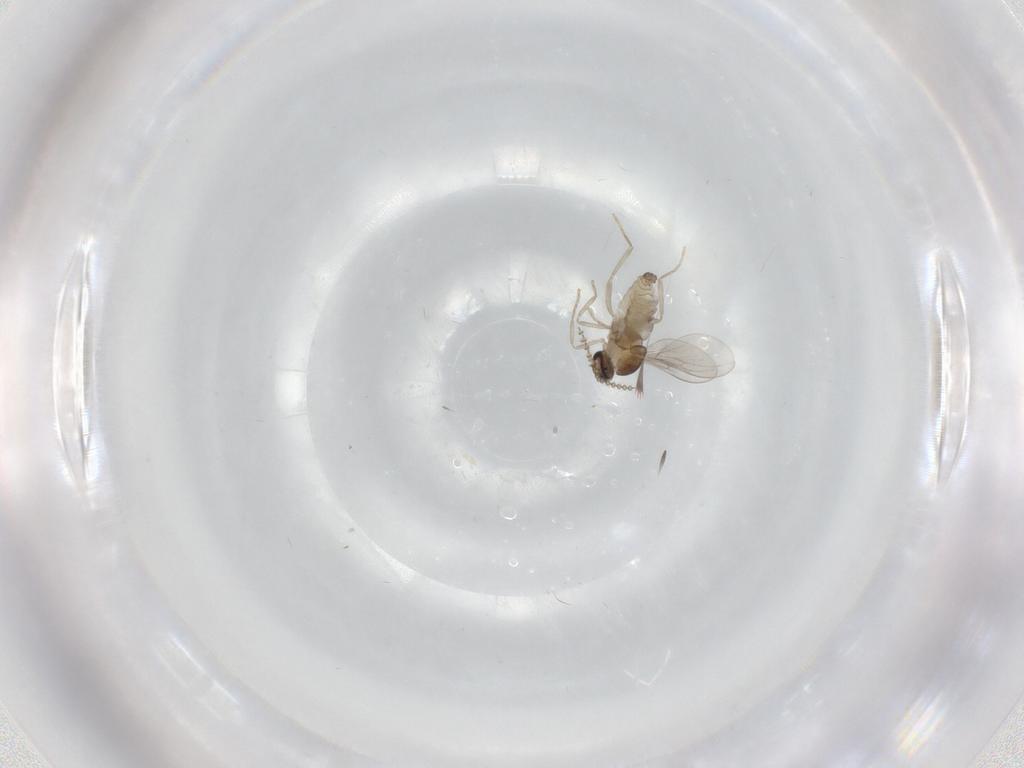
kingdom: Animalia
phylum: Arthropoda
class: Insecta
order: Diptera
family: Cecidomyiidae
